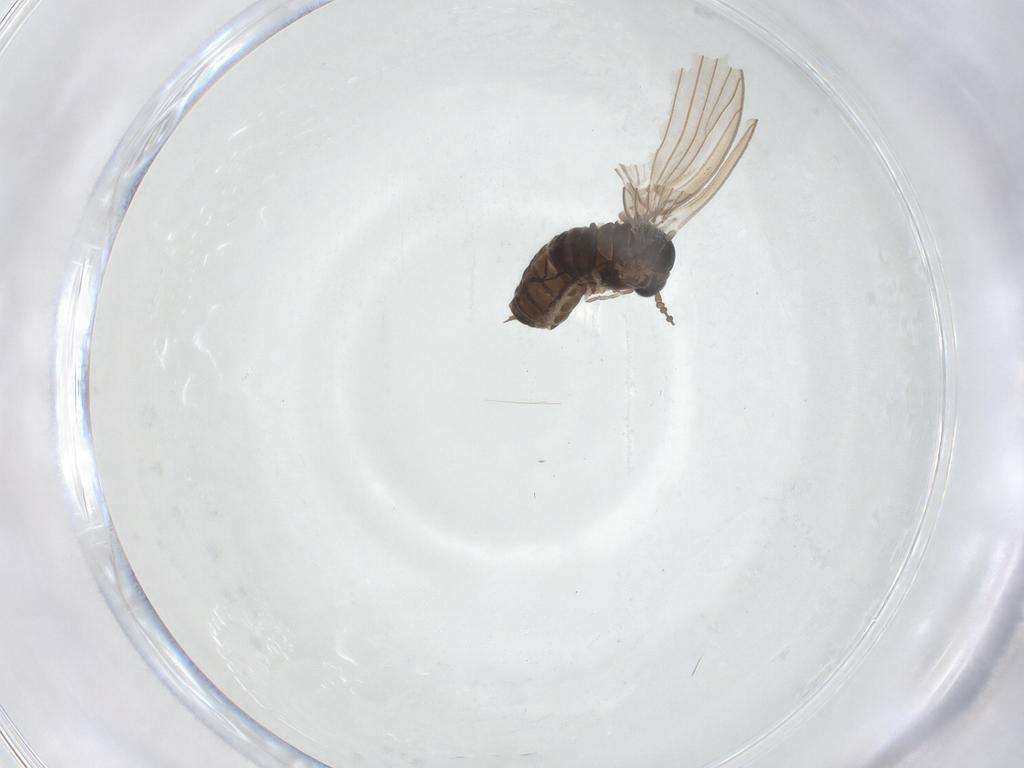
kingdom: Animalia
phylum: Arthropoda
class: Insecta
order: Diptera
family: Psychodidae
